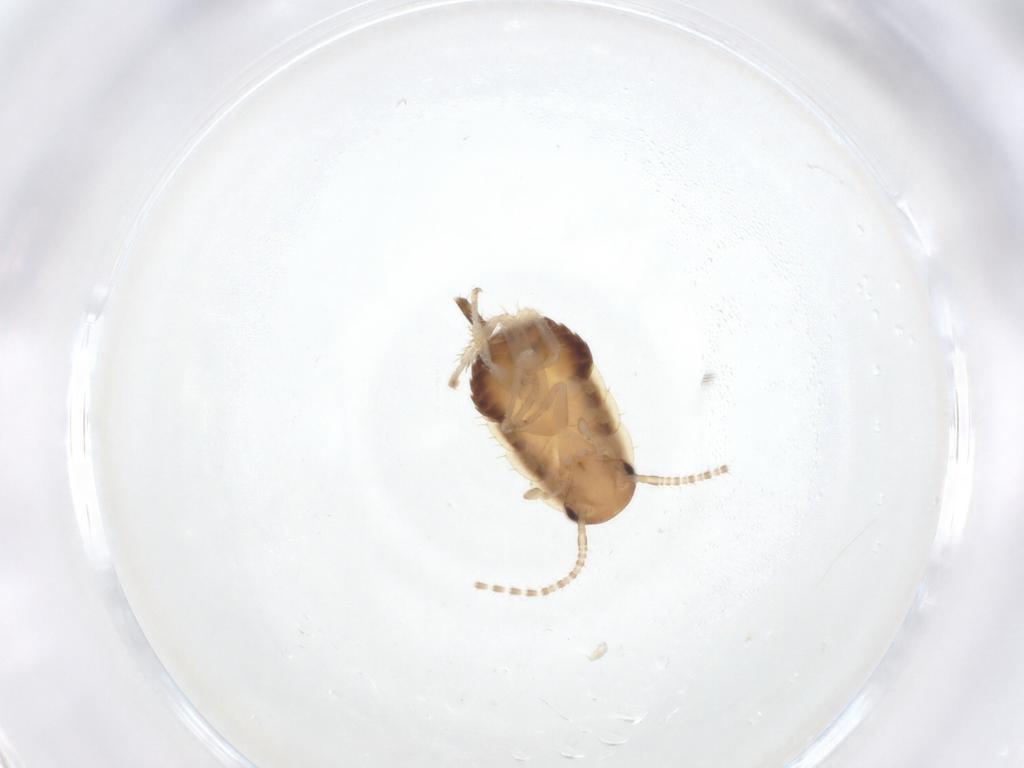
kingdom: Animalia
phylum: Arthropoda
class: Insecta
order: Blattodea
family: Ectobiidae
